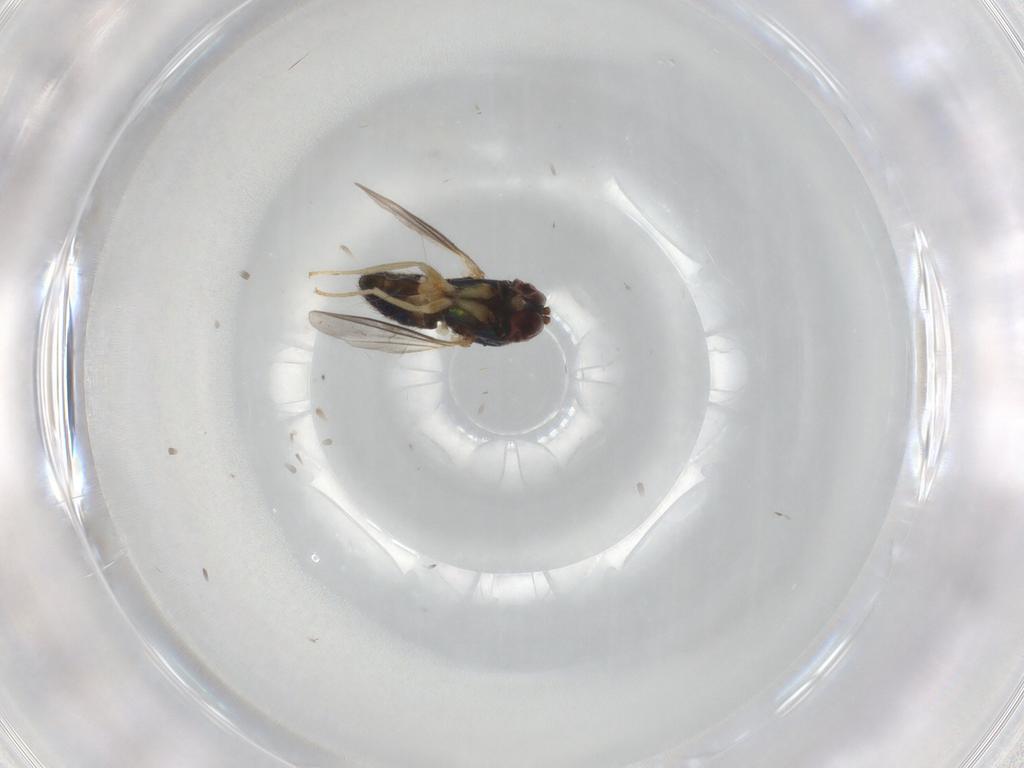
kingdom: Animalia
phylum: Arthropoda
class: Insecta
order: Diptera
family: Dolichopodidae
